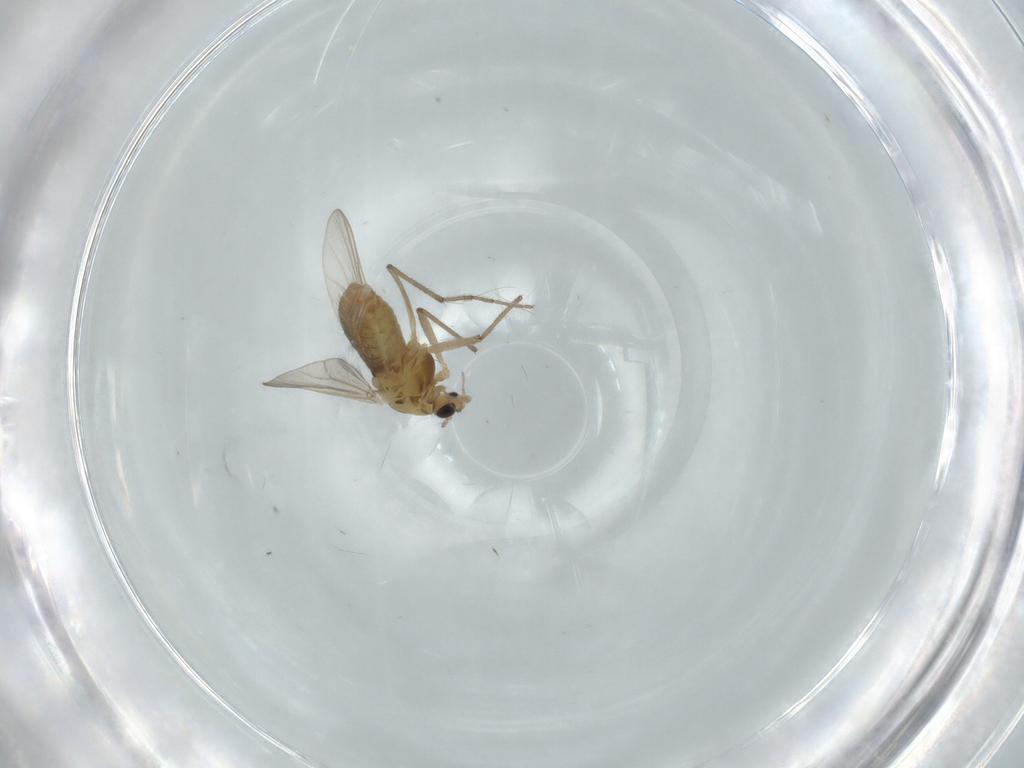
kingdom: Animalia
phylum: Arthropoda
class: Insecta
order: Diptera
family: Chironomidae
